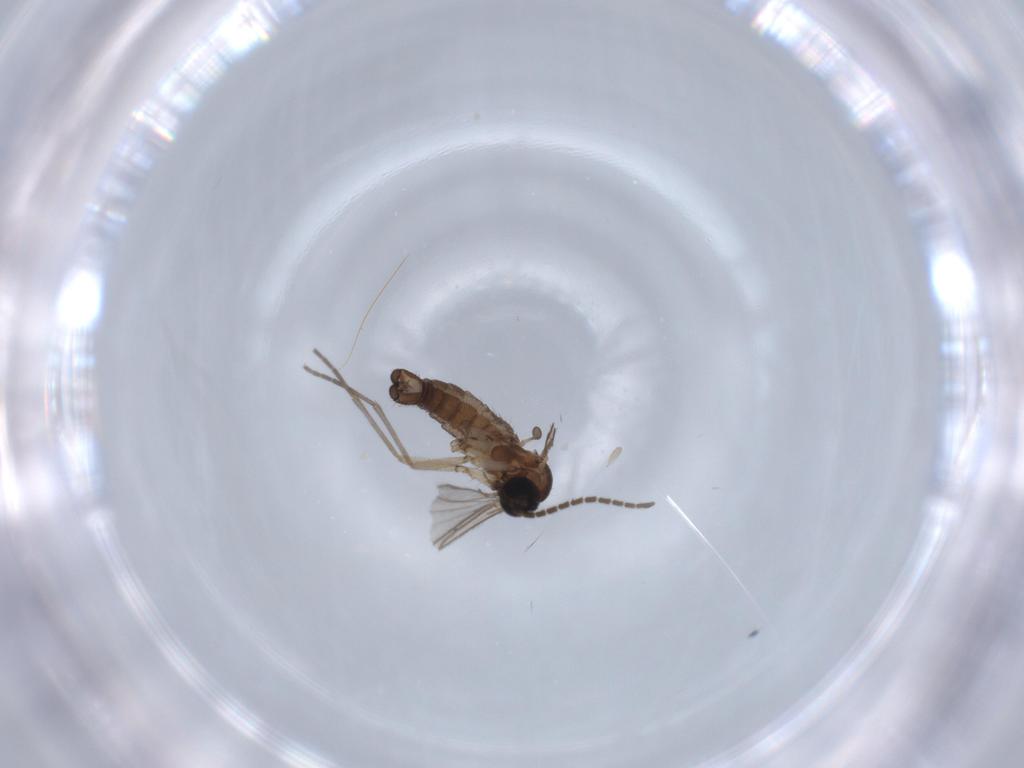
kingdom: Animalia
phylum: Arthropoda
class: Insecta
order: Diptera
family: Sciaridae
